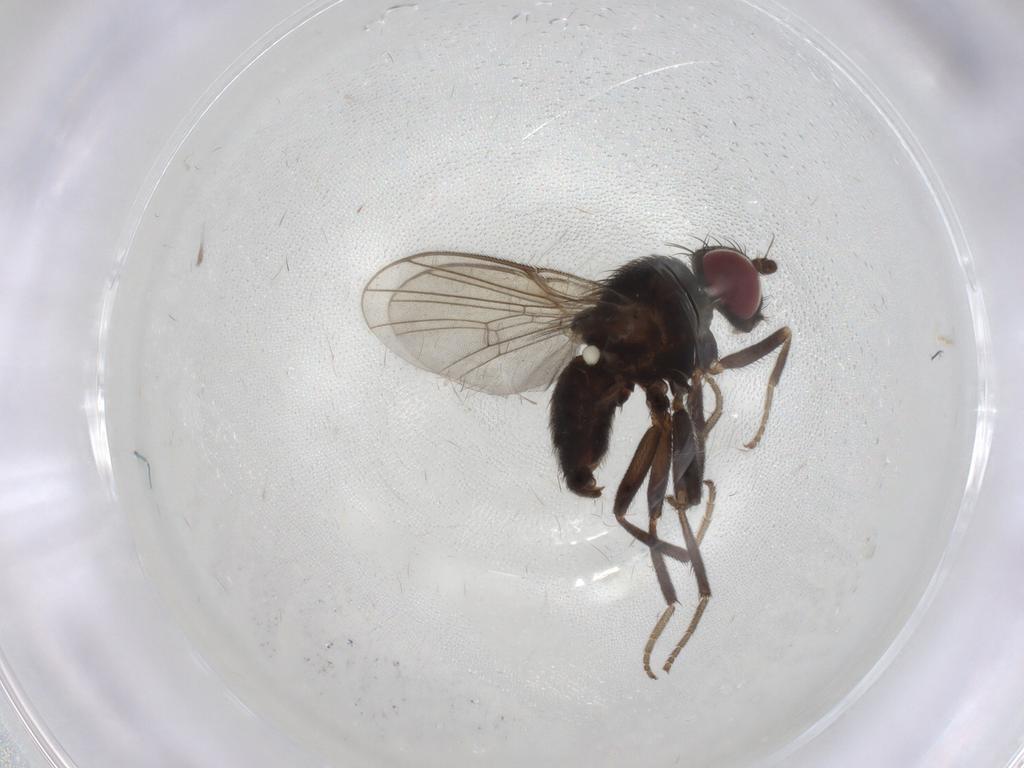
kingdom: Animalia
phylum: Arthropoda
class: Insecta
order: Diptera
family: Agromyzidae
